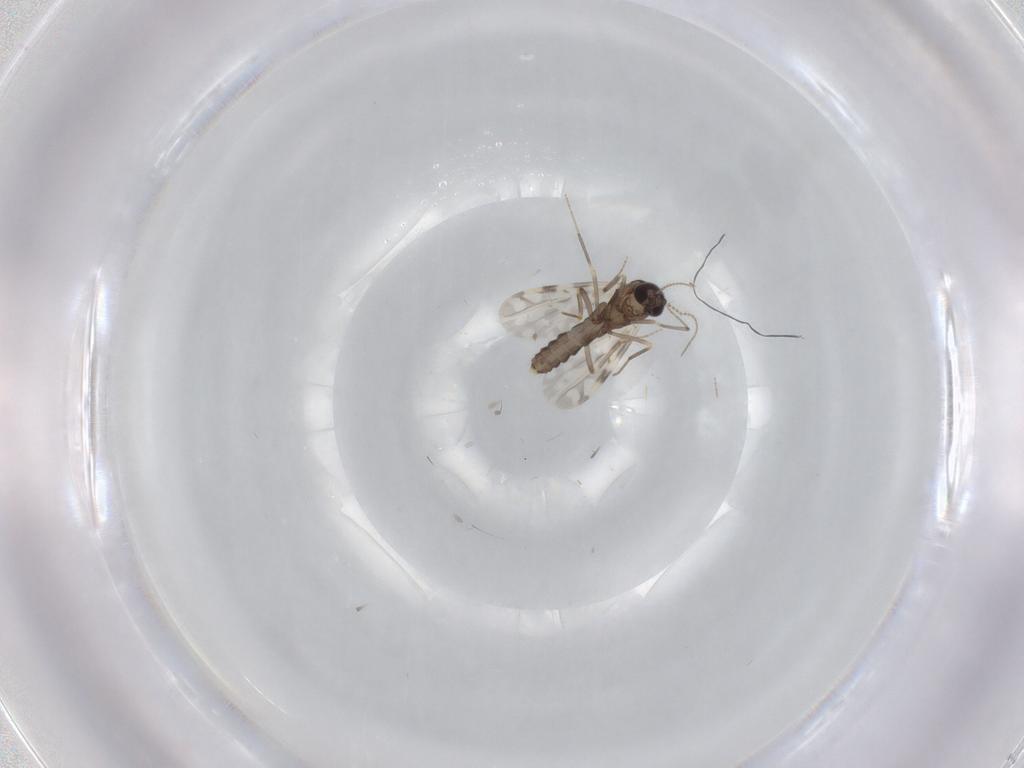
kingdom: Animalia
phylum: Arthropoda
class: Insecta
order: Diptera
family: Ceratopogonidae
